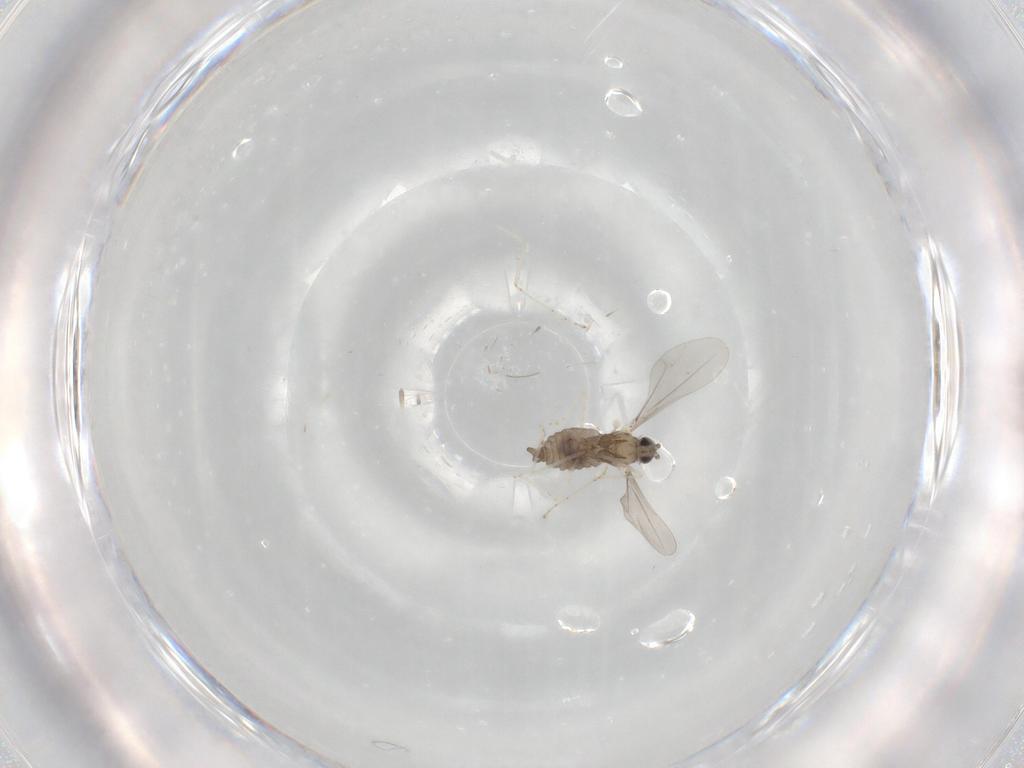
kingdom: Animalia
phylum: Arthropoda
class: Insecta
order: Diptera
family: Cecidomyiidae
